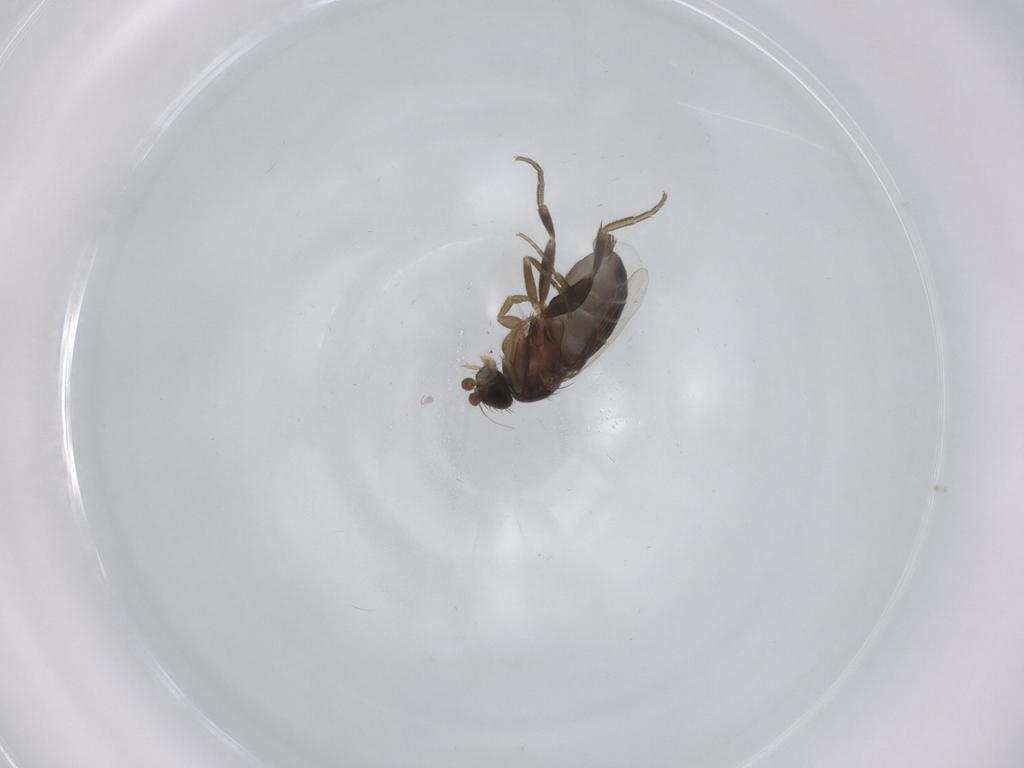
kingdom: Animalia
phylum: Arthropoda
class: Insecta
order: Diptera
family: Phoridae
